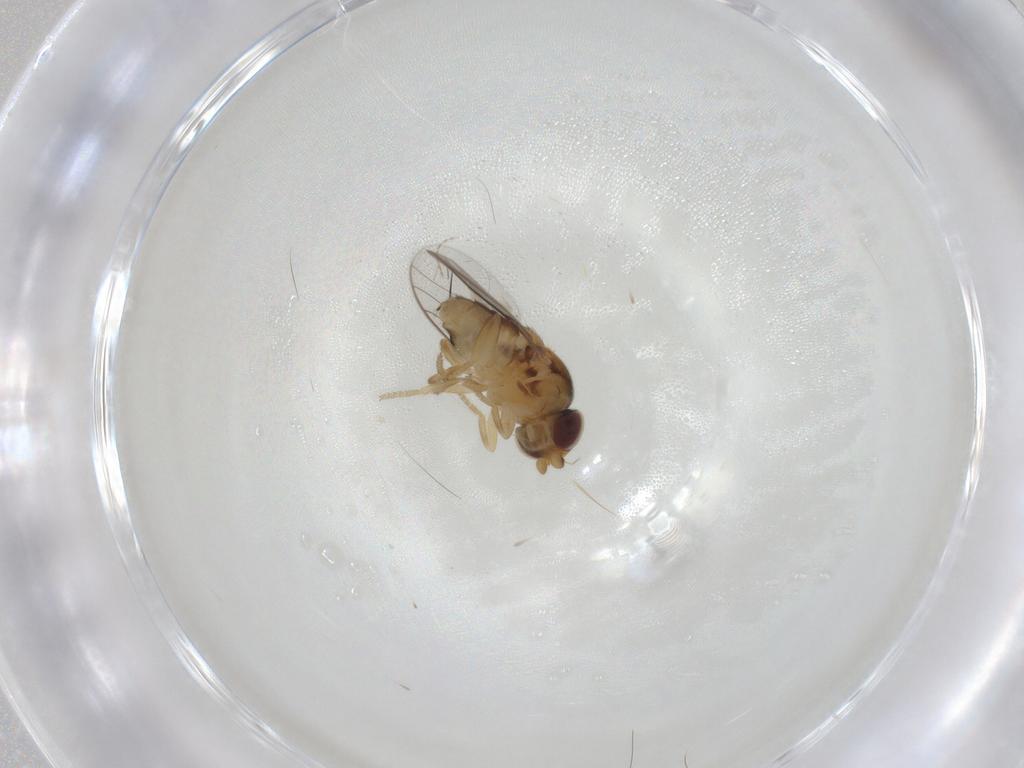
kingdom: Animalia
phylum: Arthropoda
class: Insecta
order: Diptera
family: Chloropidae
